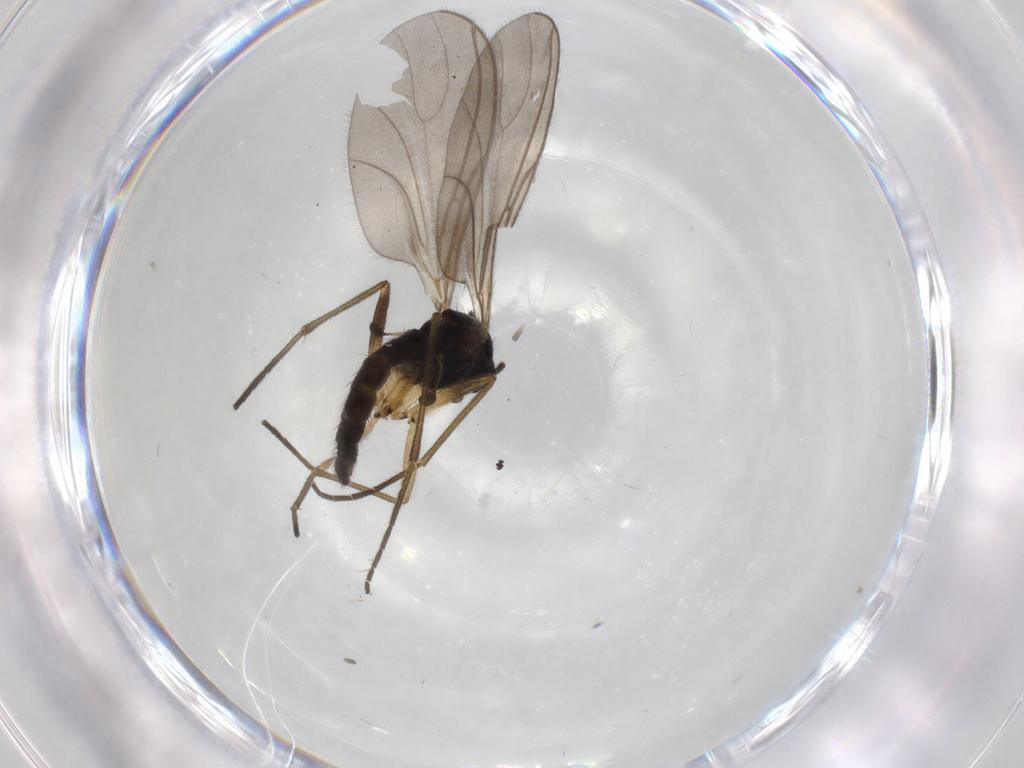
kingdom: Animalia
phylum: Arthropoda
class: Insecta
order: Diptera
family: Sciaridae
